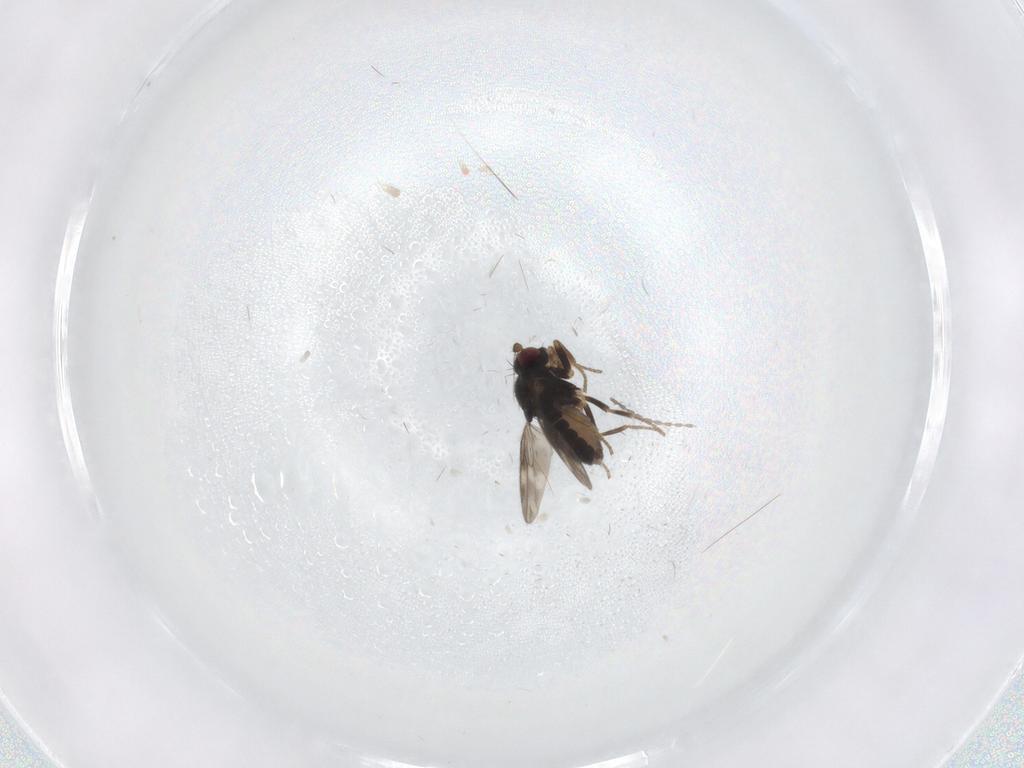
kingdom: Animalia
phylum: Arthropoda
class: Insecta
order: Diptera
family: Sphaeroceridae
